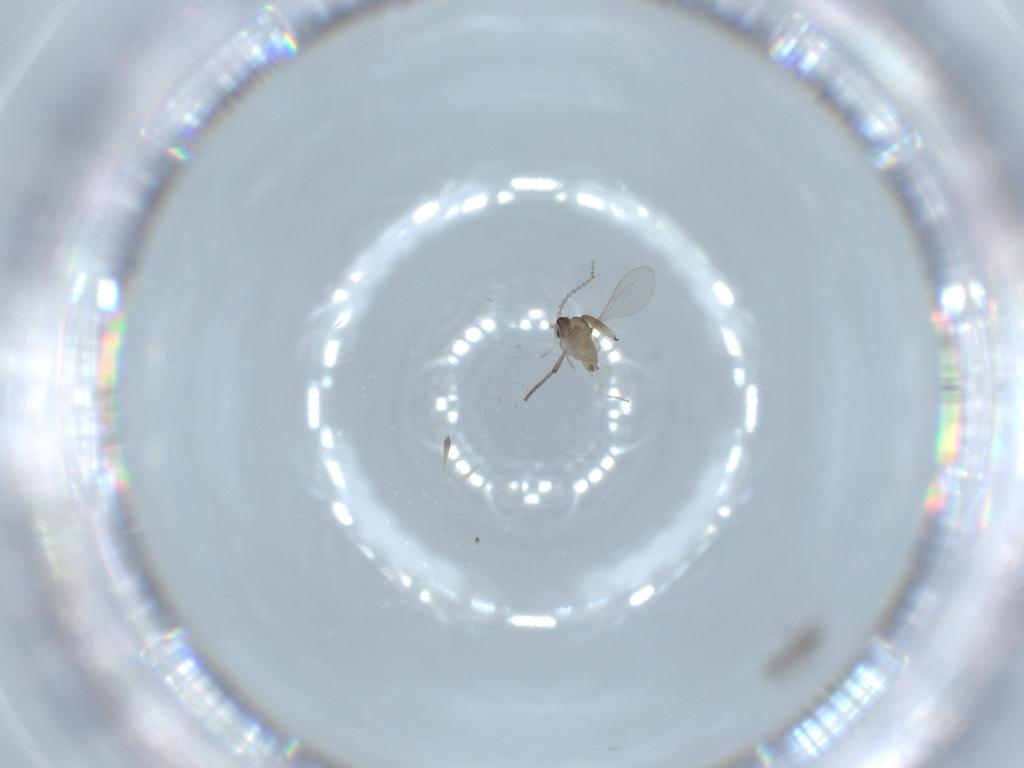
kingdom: Animalia
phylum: Arthropoda
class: Insecta
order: Diptera
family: Cecidomyiidae
